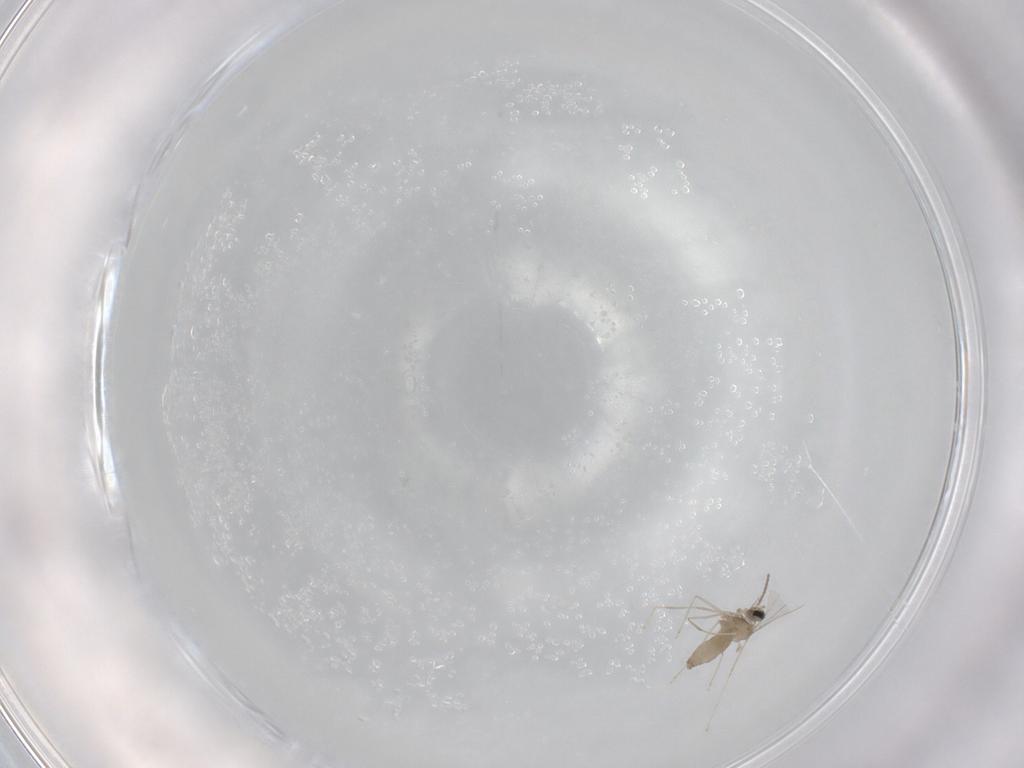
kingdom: Animalia
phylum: Arthropoda
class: Insecta
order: Diptera
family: Cecidomyiidae
